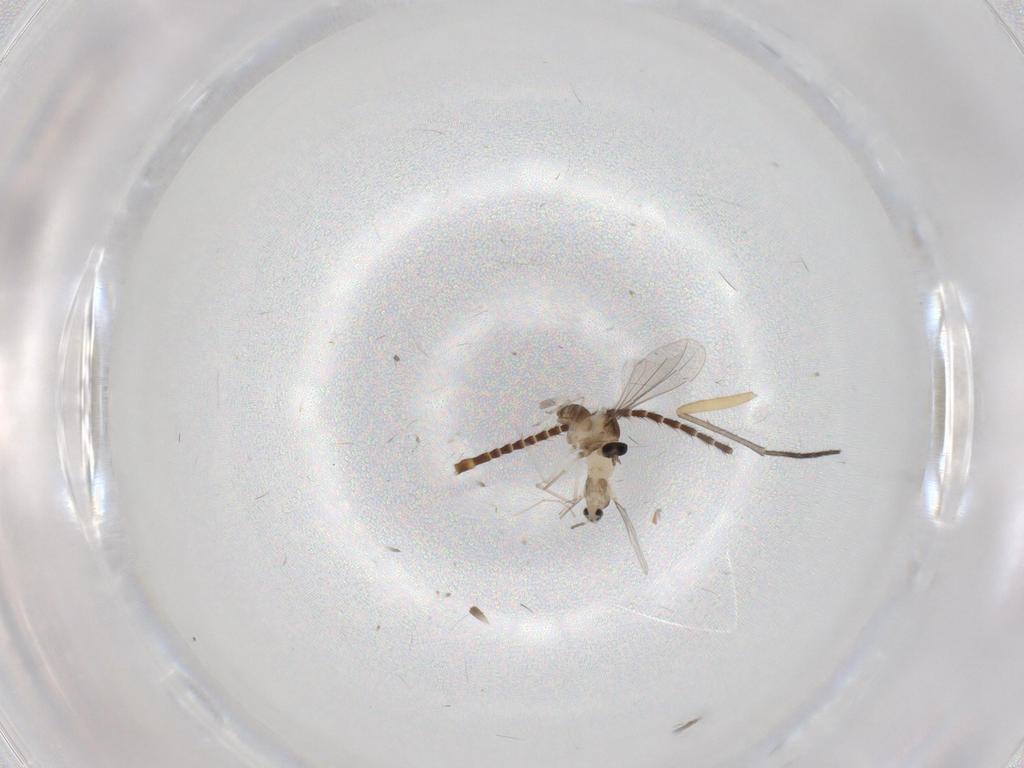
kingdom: Animalia
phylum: Arthropoda
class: Insecta
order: Diptera
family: Cecidomyiidae
